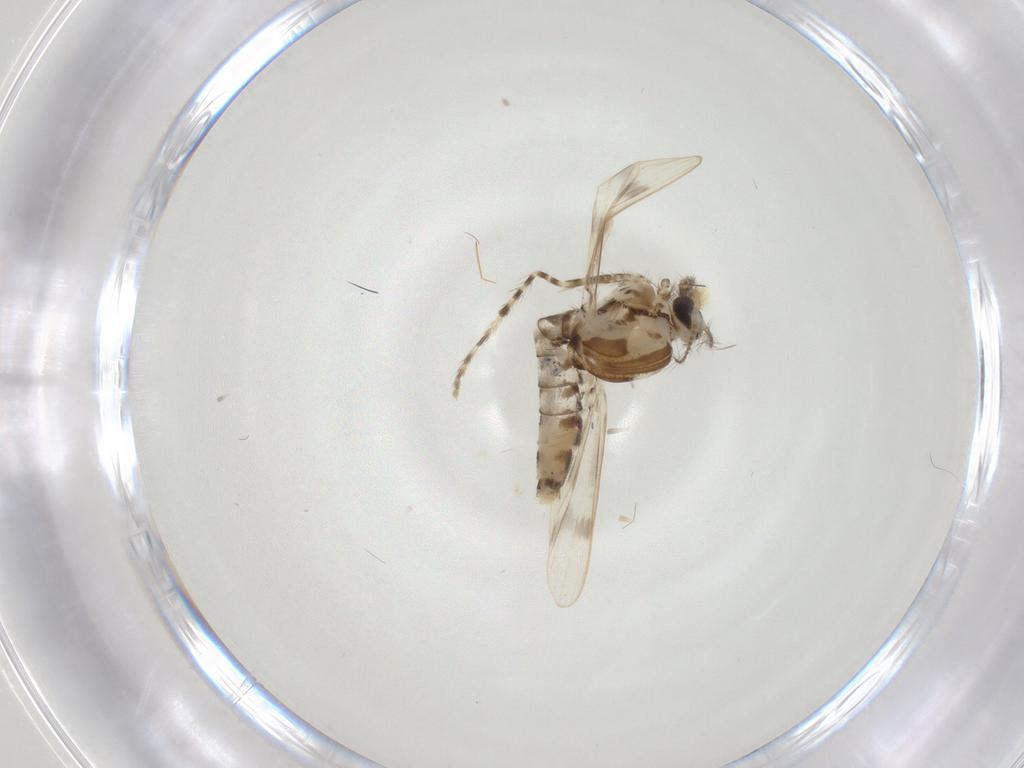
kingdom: Animalia
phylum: Arthropoda
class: Insecta
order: Diptera
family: Chaoboridae
